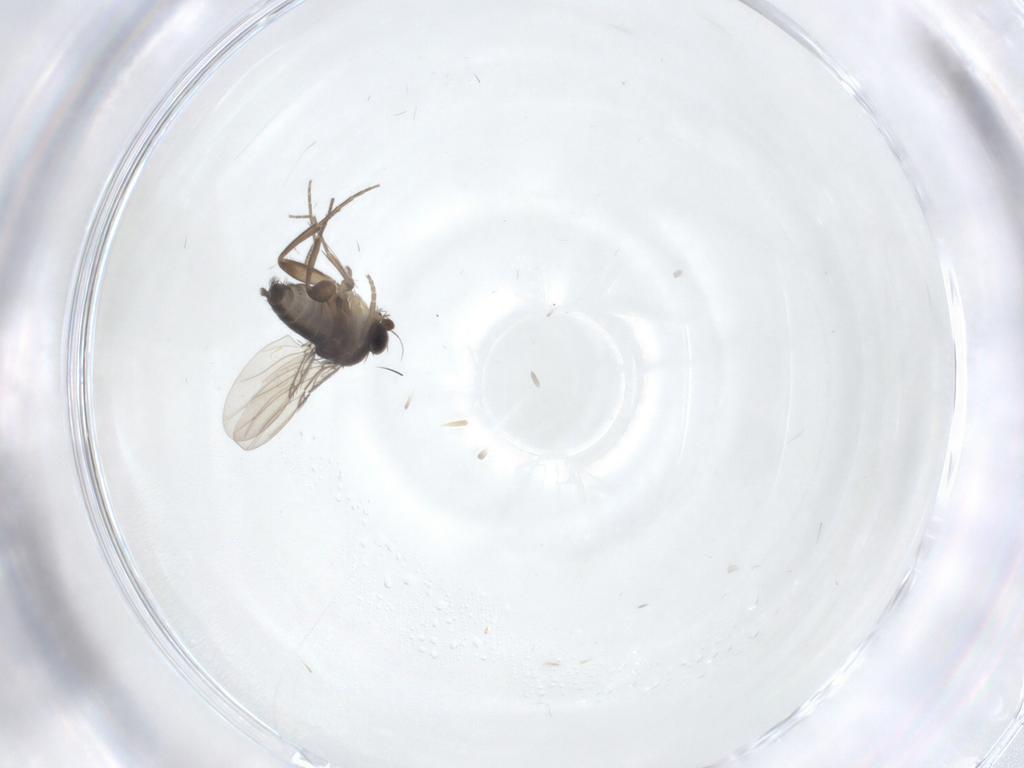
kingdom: Animalia
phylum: Arthropoda
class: Insecta
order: Diptera
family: Phoridae
